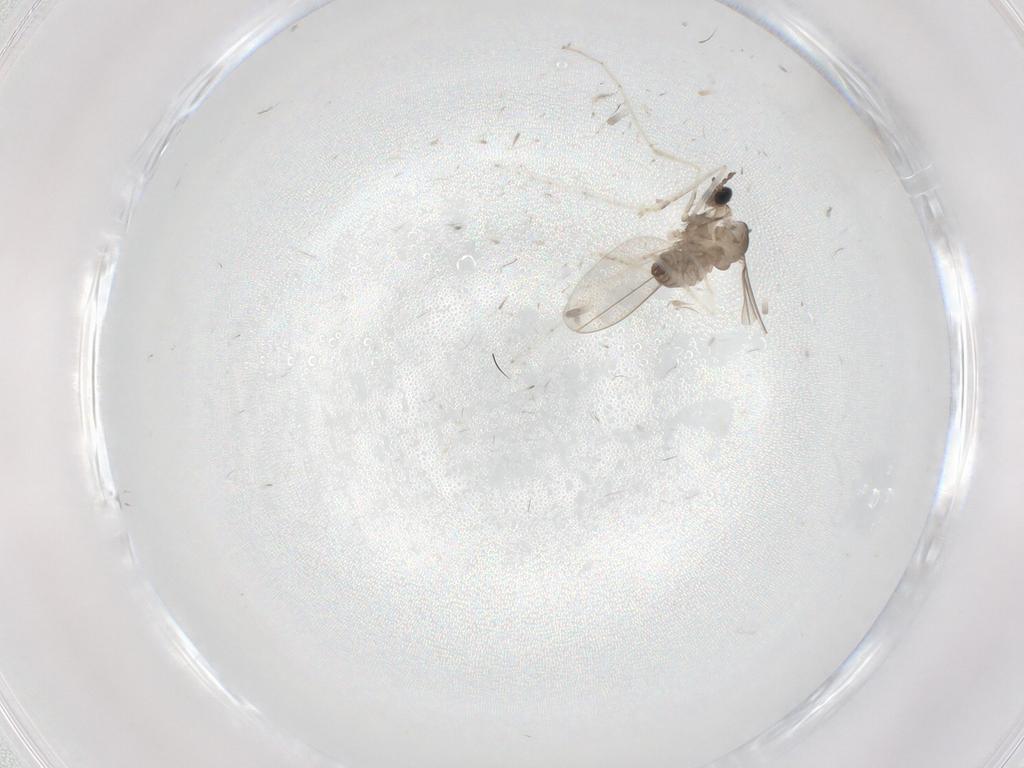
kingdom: Animalia
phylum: Arthropoda
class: Insecta
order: Diptera
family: Cecidomyiidae
